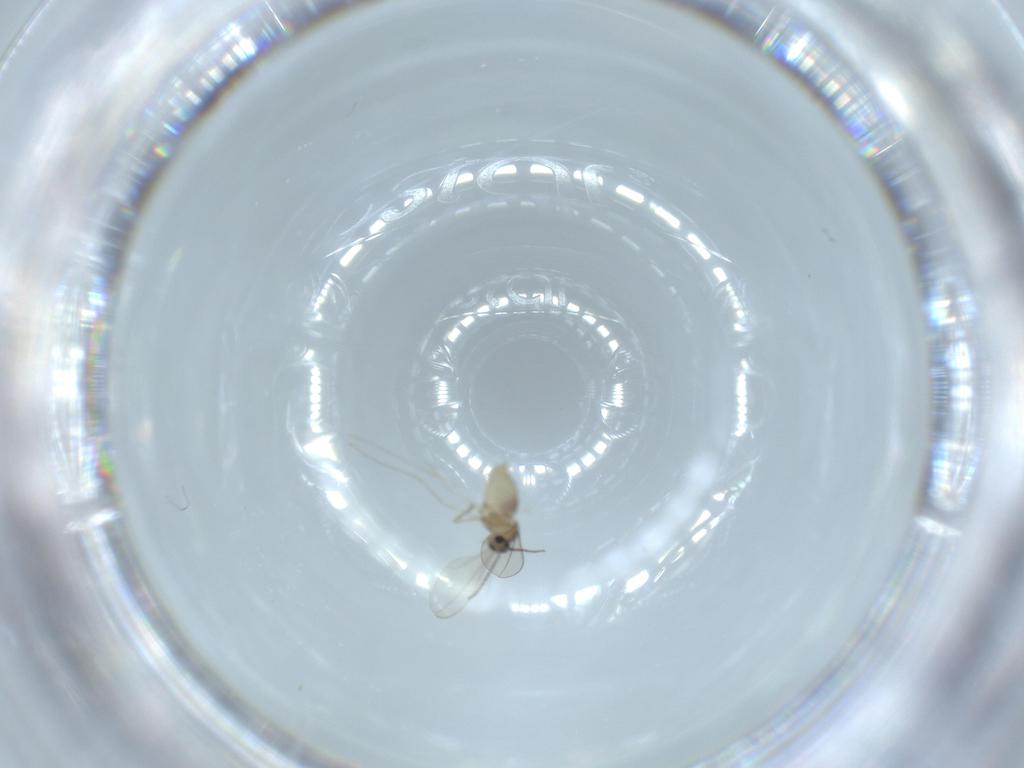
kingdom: Animalia
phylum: Arthropoda
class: Insecta
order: Diptera
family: Cecidomyiidae
